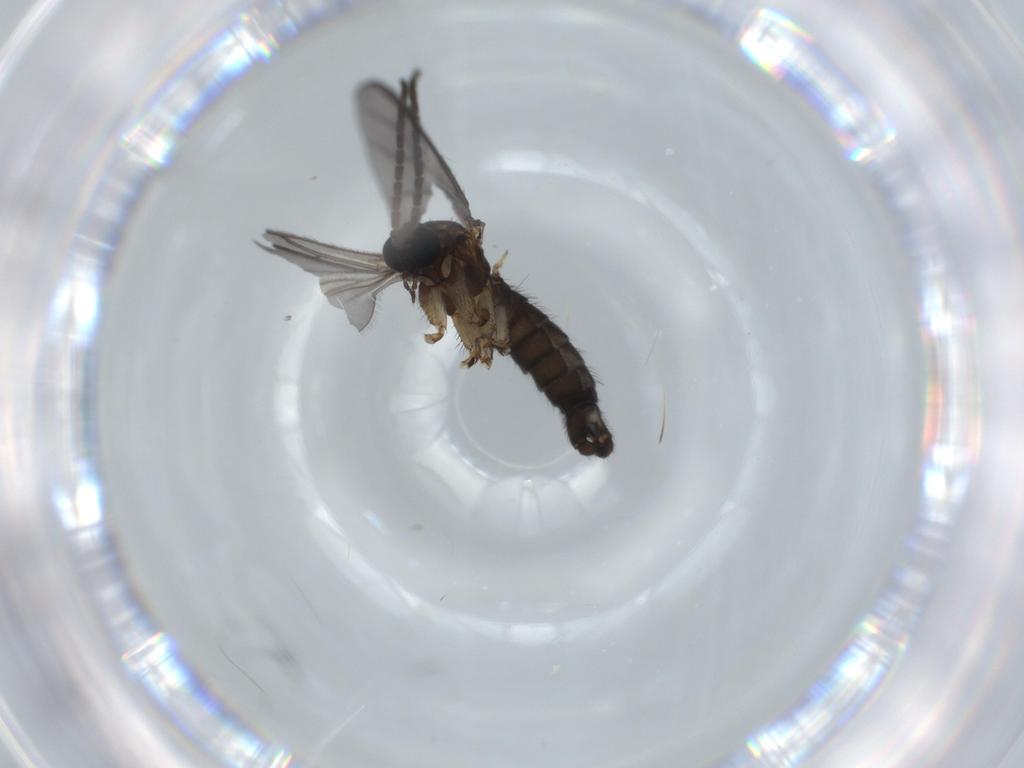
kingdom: Animalia
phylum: Arthropoda
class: Insecta
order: Diptera
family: Sciaridae
